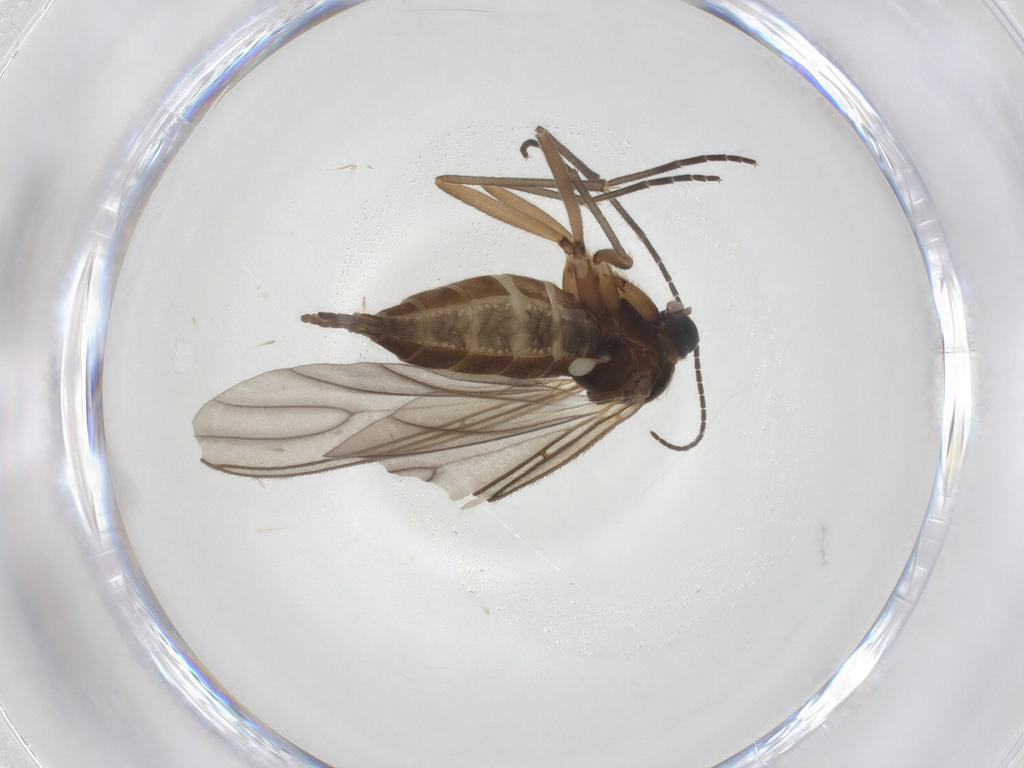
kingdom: Animalia
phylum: Arthropoda
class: Insecta
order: Diptera
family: Sciaridae
